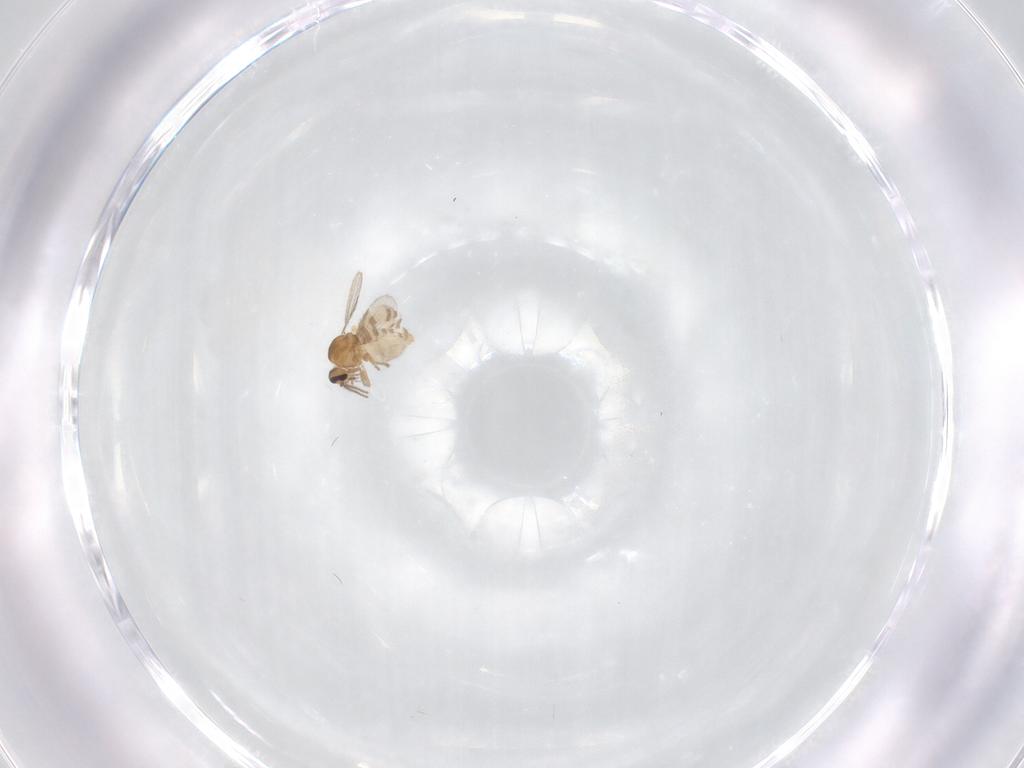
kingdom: Animalia
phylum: Arthropoda
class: Insecta
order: Diptera
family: Ceratopogonidae
